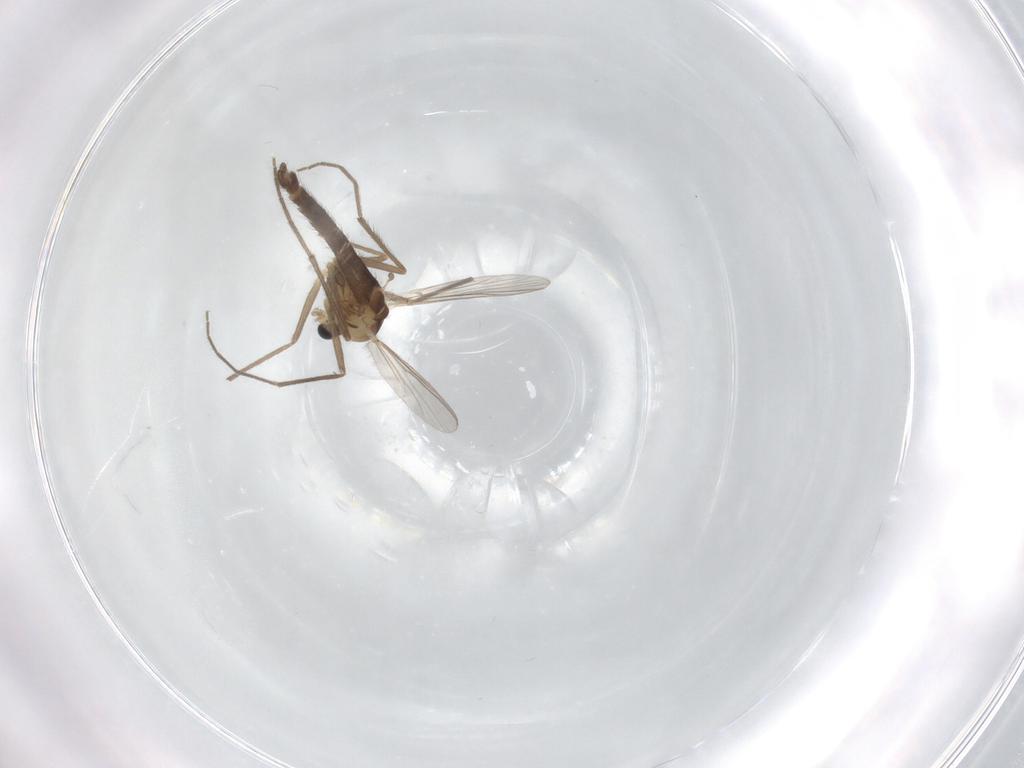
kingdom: Animalia
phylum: Arthropoda
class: Insecta
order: Diptera
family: Chironomidae
